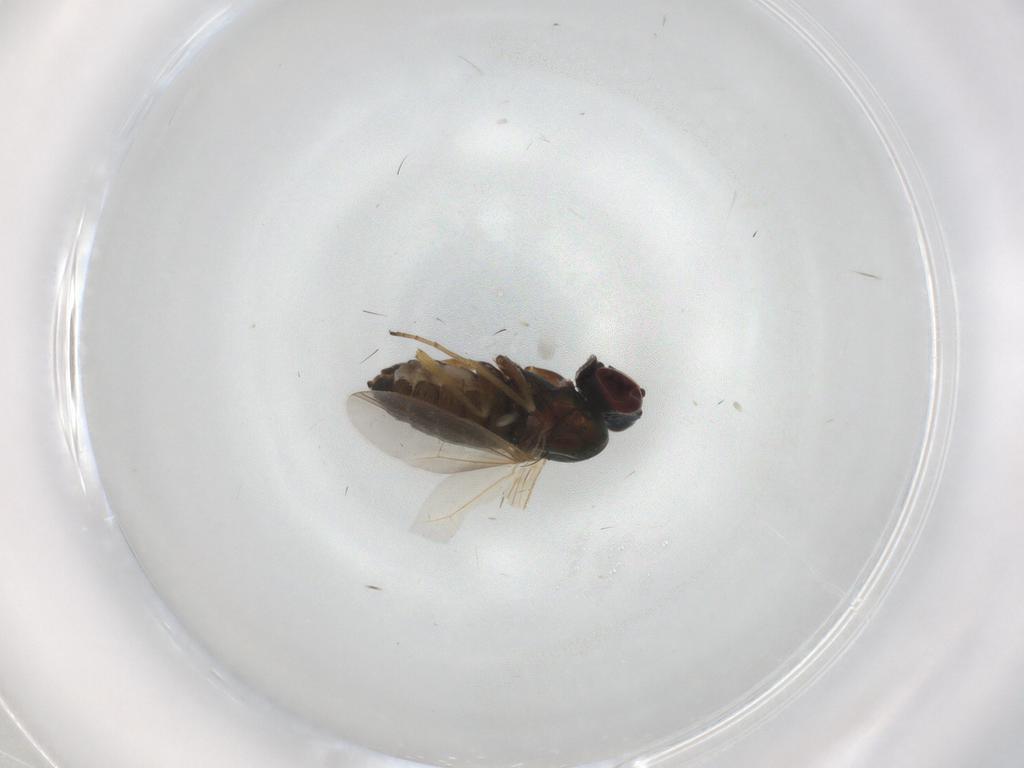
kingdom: Animalia
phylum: Arthropoda
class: Insecta
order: Diptera
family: Dolichopodidae
